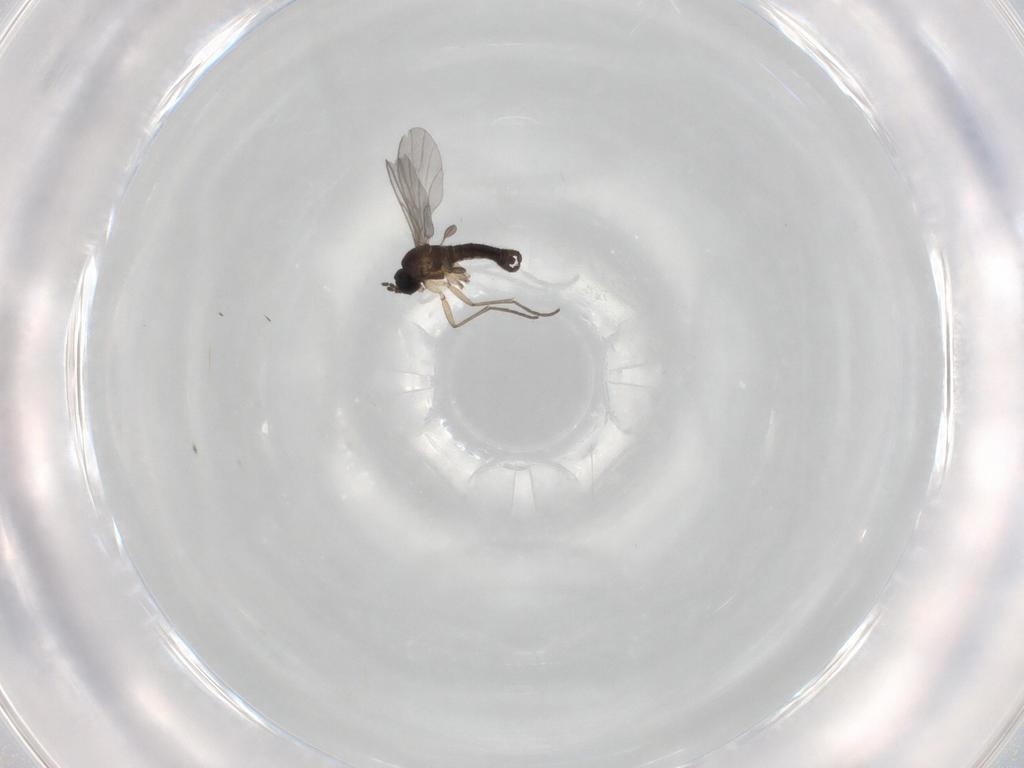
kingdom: Animalia
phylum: Arthropoda
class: Insecta
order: Diptera
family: Sciaridae
